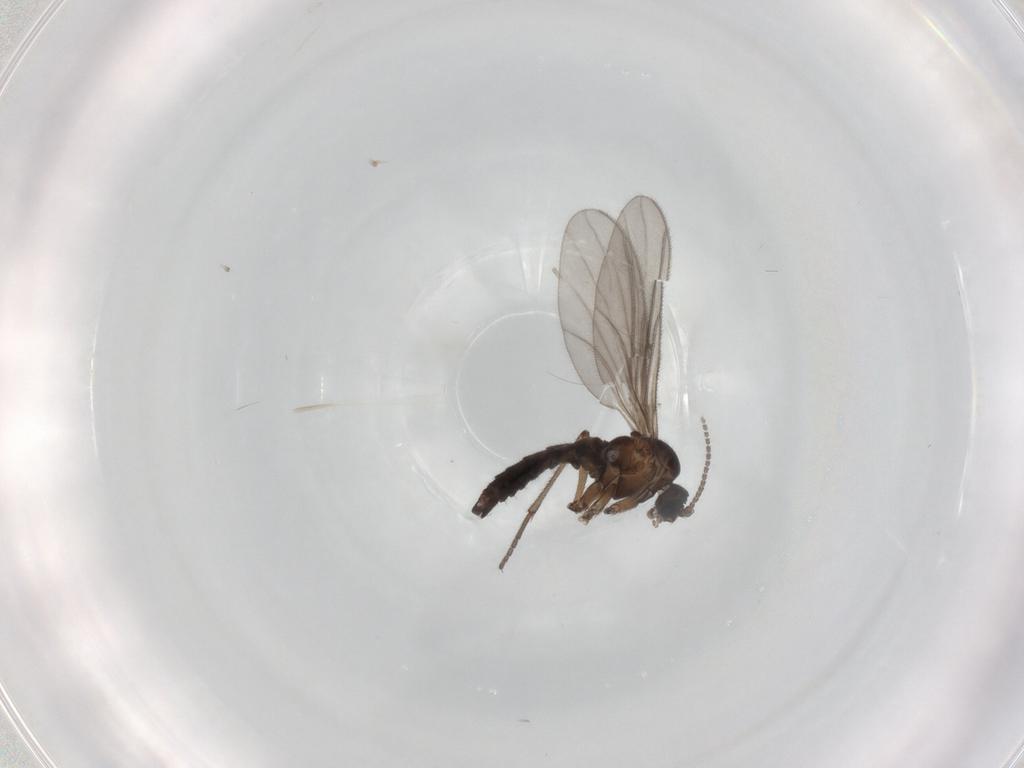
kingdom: Animalia
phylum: Arthropoda
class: Insecta
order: Diptera
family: Sciaridae
